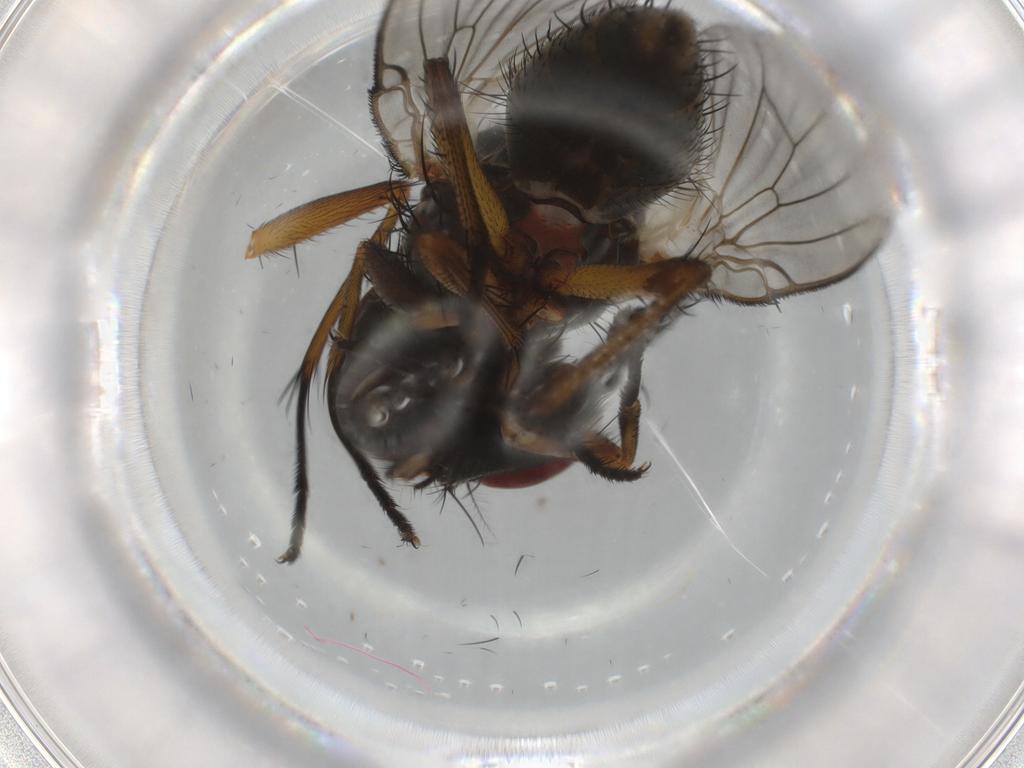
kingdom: Animalia
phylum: Arthropoda
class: Insecta
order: Diptera
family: Muscidae
